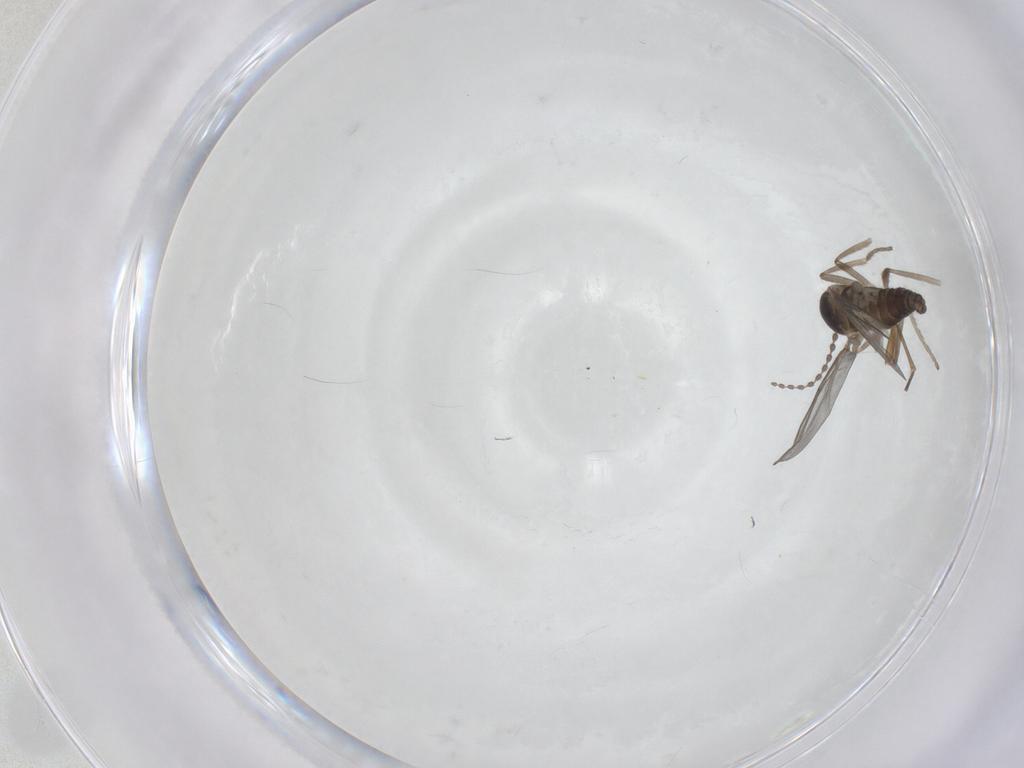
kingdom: Animalia
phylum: Arthropoda
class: Insecta
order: Diptera
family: Cecidomyiidae
